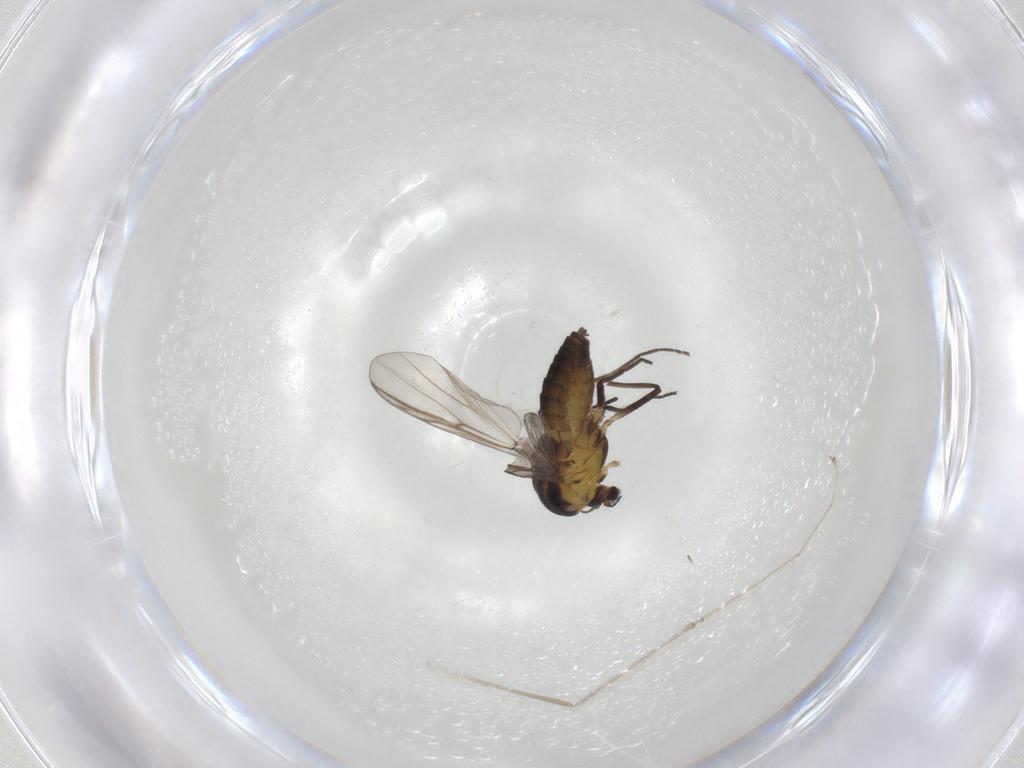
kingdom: Animalia
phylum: Arthropoda
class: Insecta
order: Diptera
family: Chironomidae
